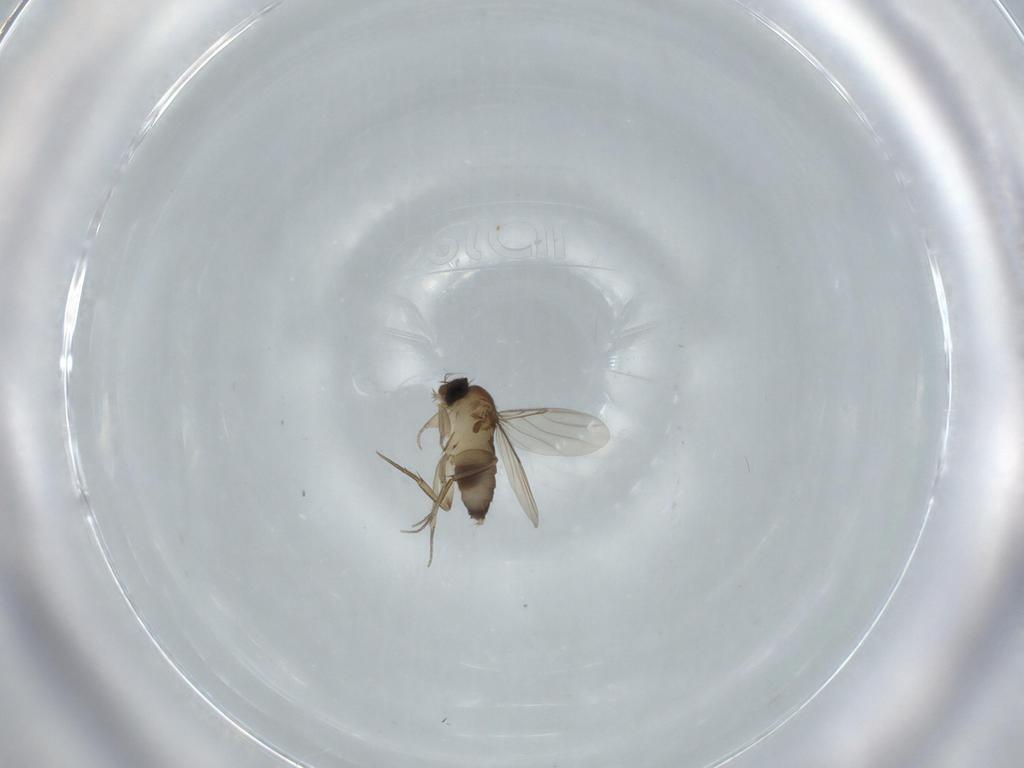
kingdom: Animalia
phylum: Arthropoda
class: Insecta
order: Diptera
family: Phoridae
